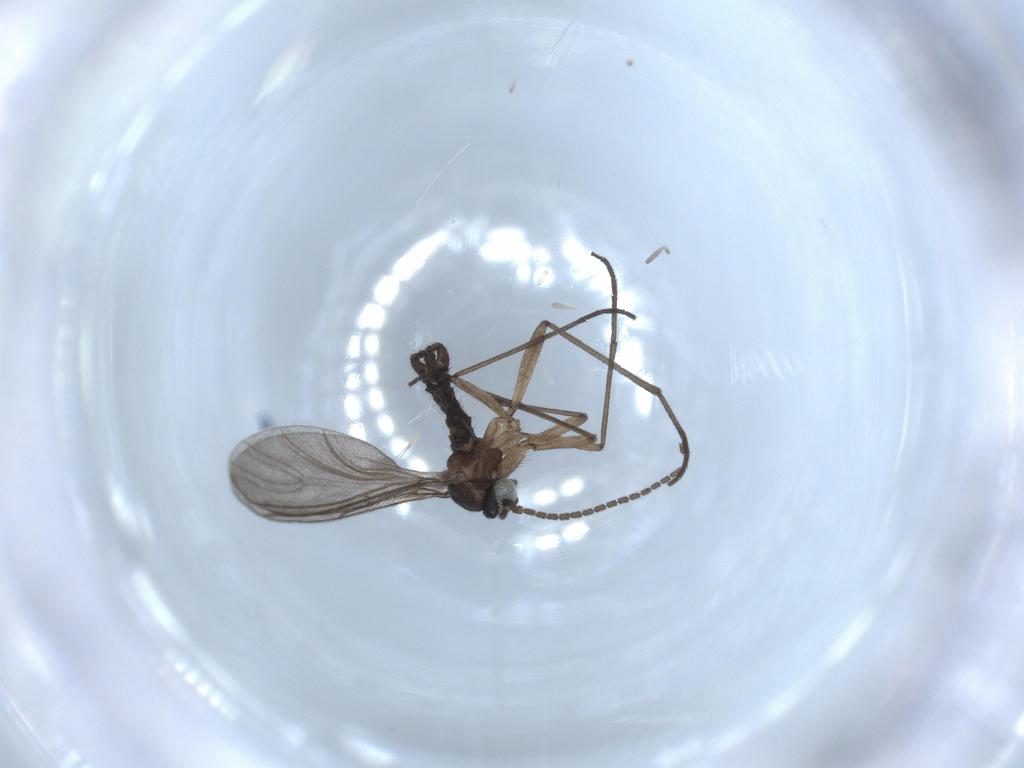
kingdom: Animalia
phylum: Arthropoda
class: Insecta
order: Diptera
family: Sciaridae
